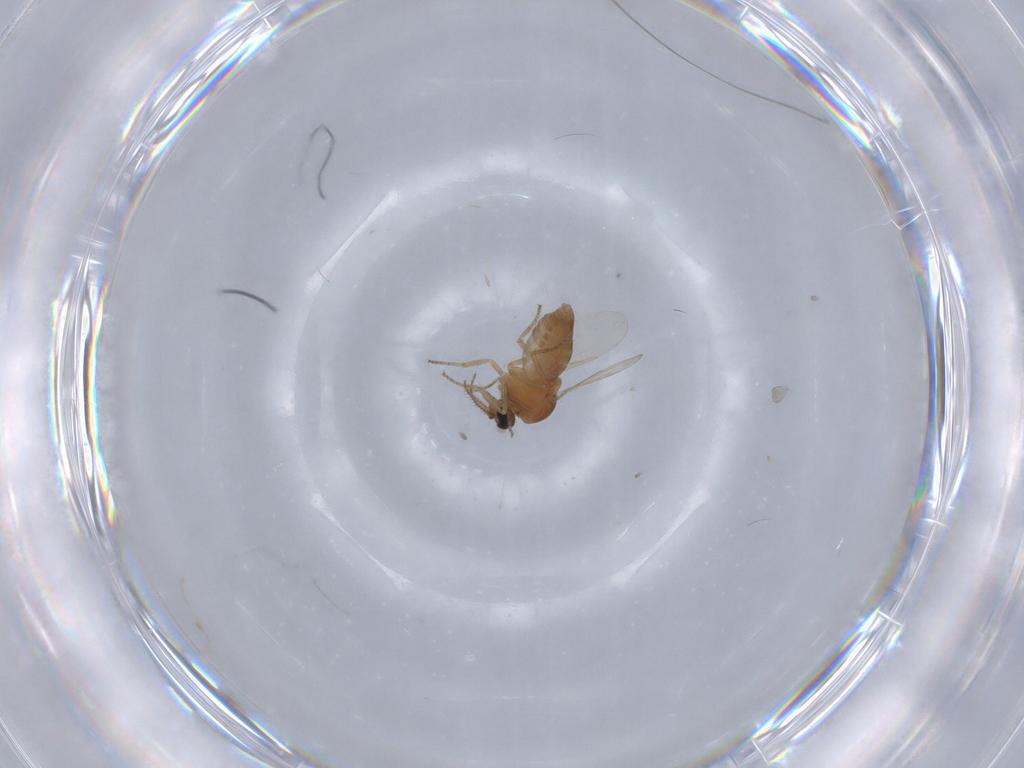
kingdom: Animalia
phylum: Arthropoda
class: Insecta
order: Diptera
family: Ceratopogonidae
